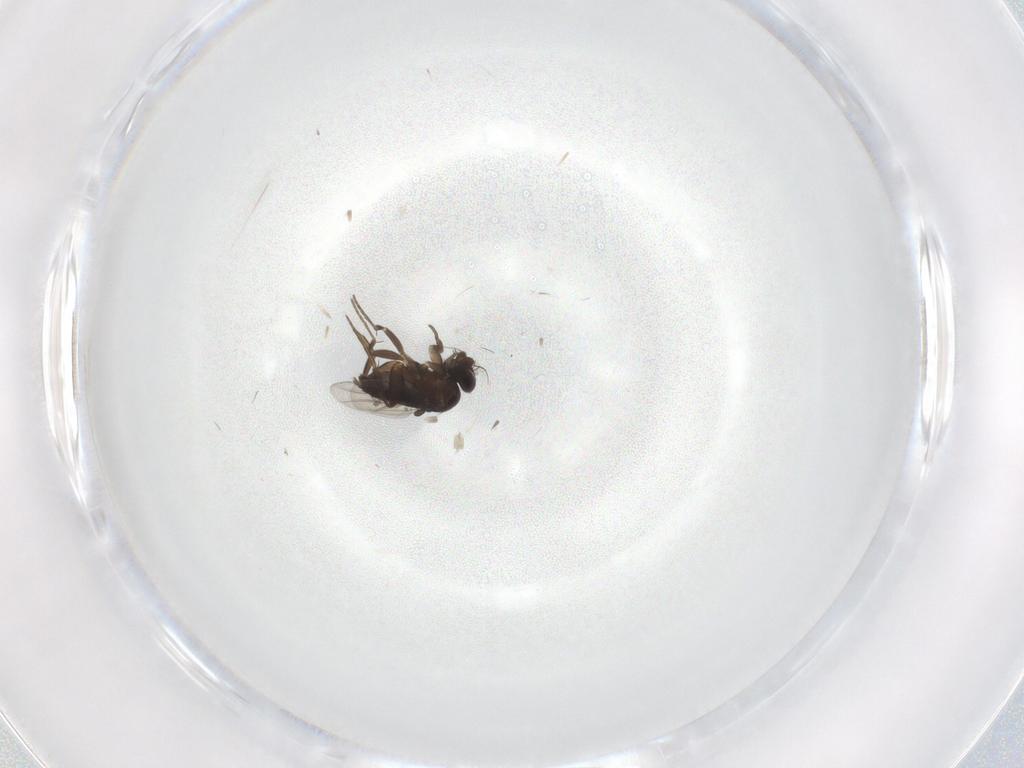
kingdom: Animalia
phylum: Arthropoda
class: Insecta
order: Diptera
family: Phoridae
